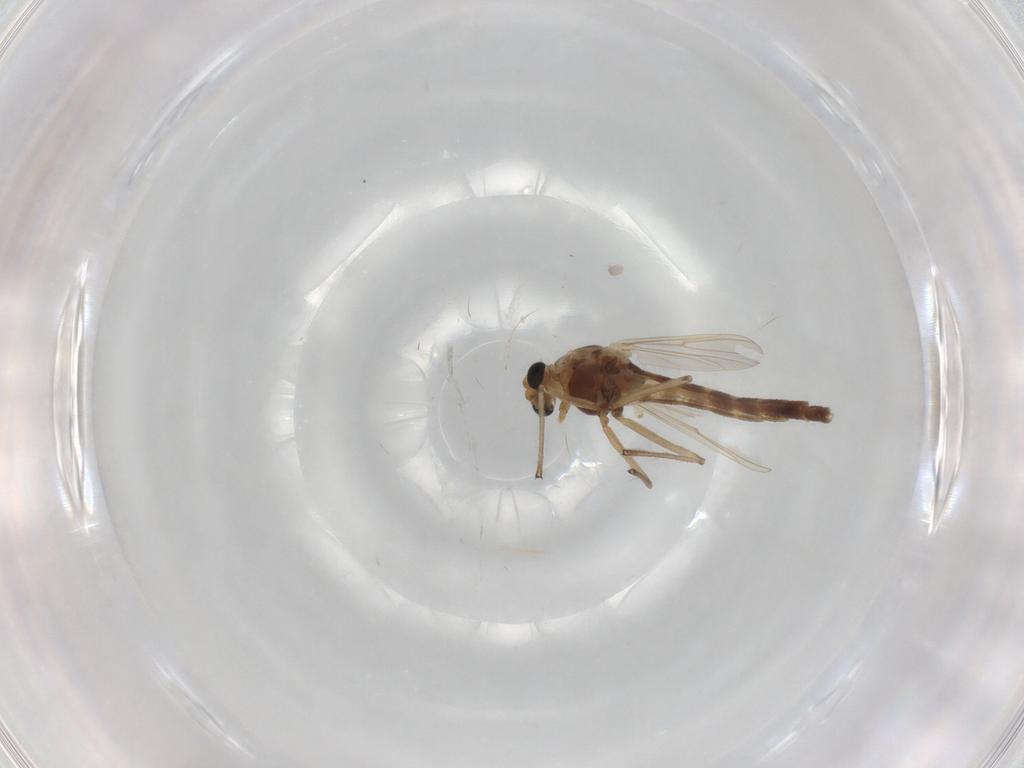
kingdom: Animalia
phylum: Arthropoda
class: Insecta
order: Diptera
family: Chironomidae
